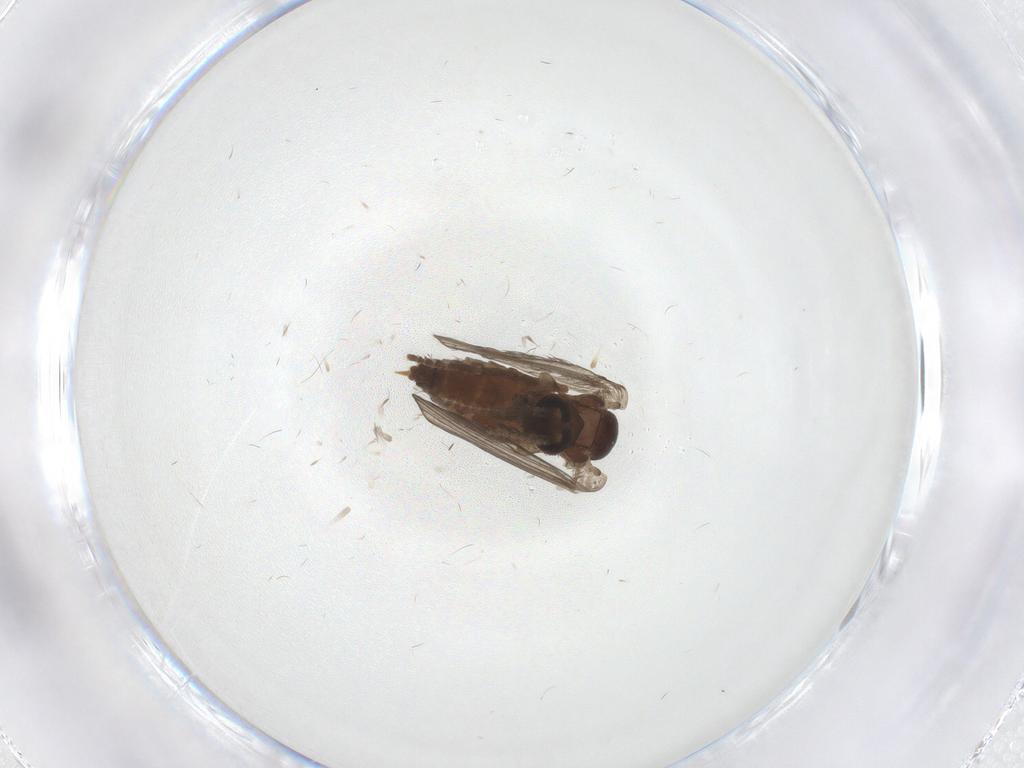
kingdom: Animalia
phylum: Arthropoda
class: Insecta
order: Diptera
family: Psychodidae
